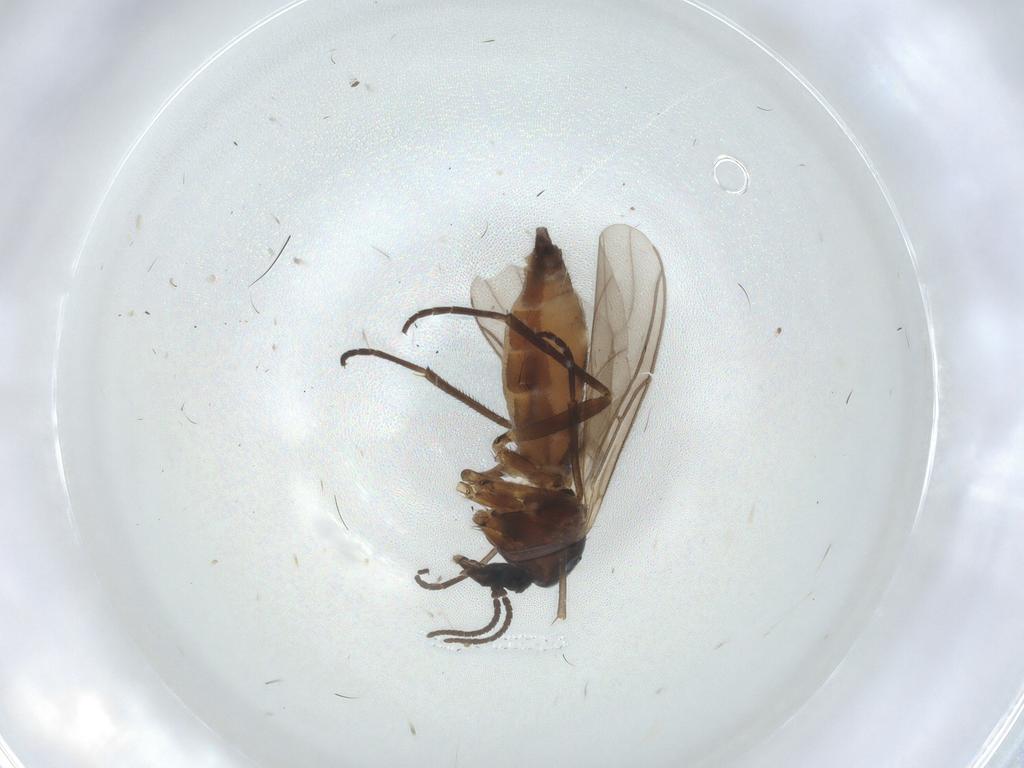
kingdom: Animalia
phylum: Arthropoda
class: Insecta
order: Diptera
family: Sciaridae
